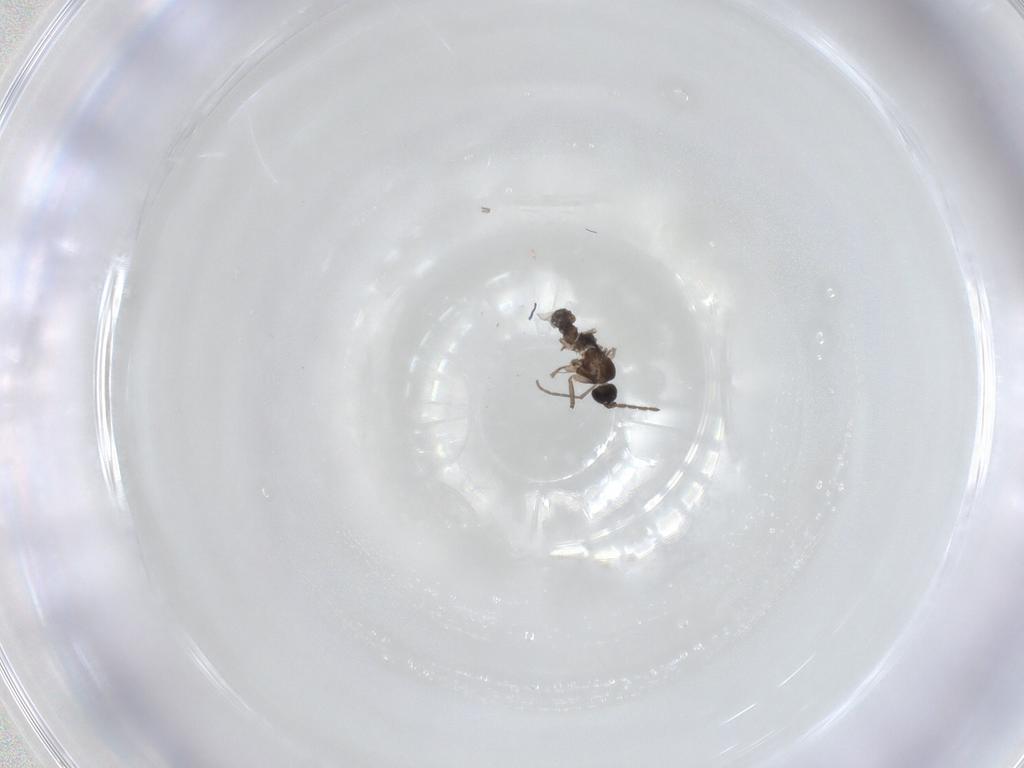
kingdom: Animalia
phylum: Arthropoda
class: Insecta
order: Diptera
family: Sciaridae
